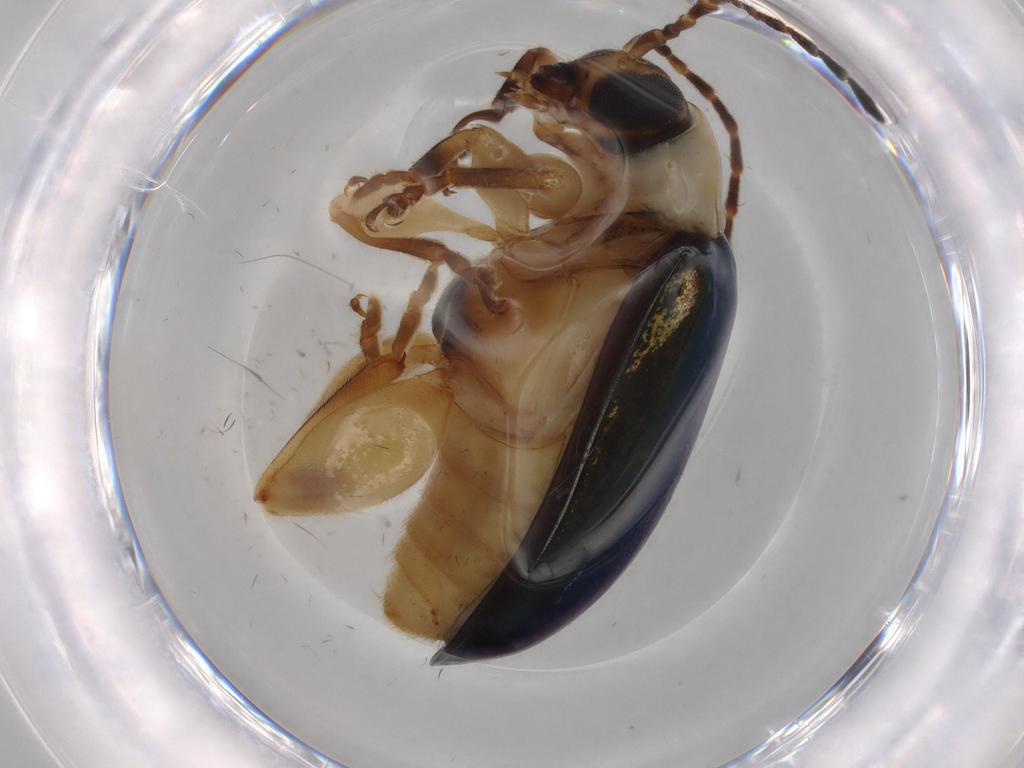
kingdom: Animalia
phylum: Arthropoda
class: Insecta
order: Coleoptera
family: Chrysomelidae
